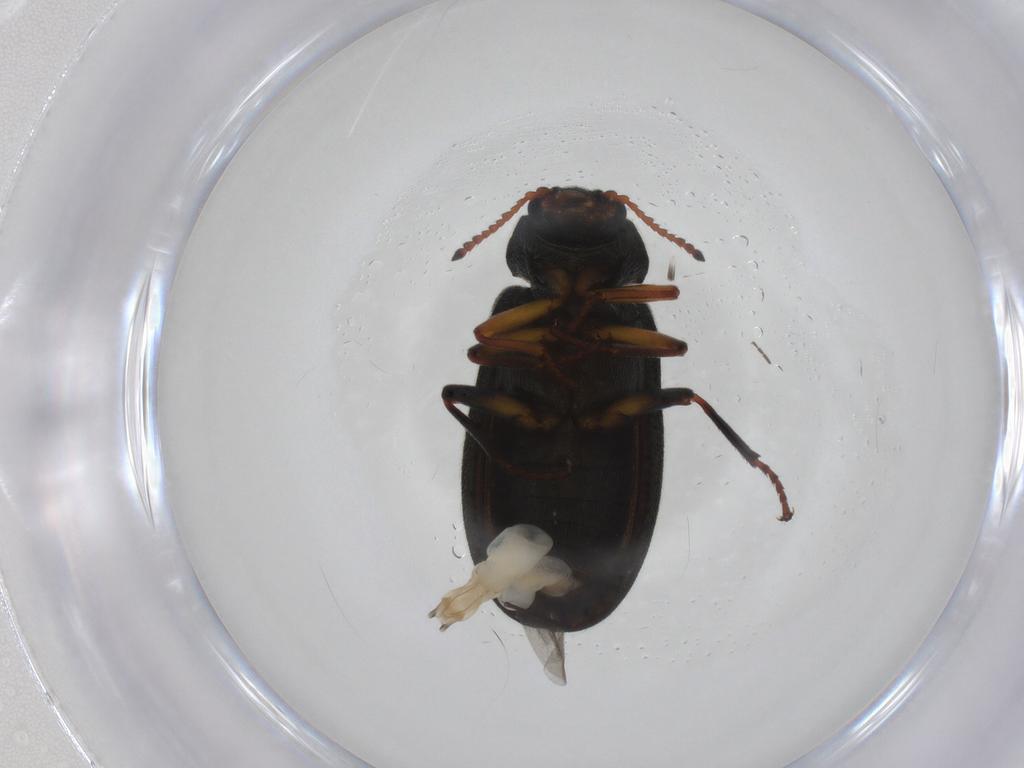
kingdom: Animalia
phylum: Arthropoda
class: Insecta
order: Coleoptera
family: Melyridae
